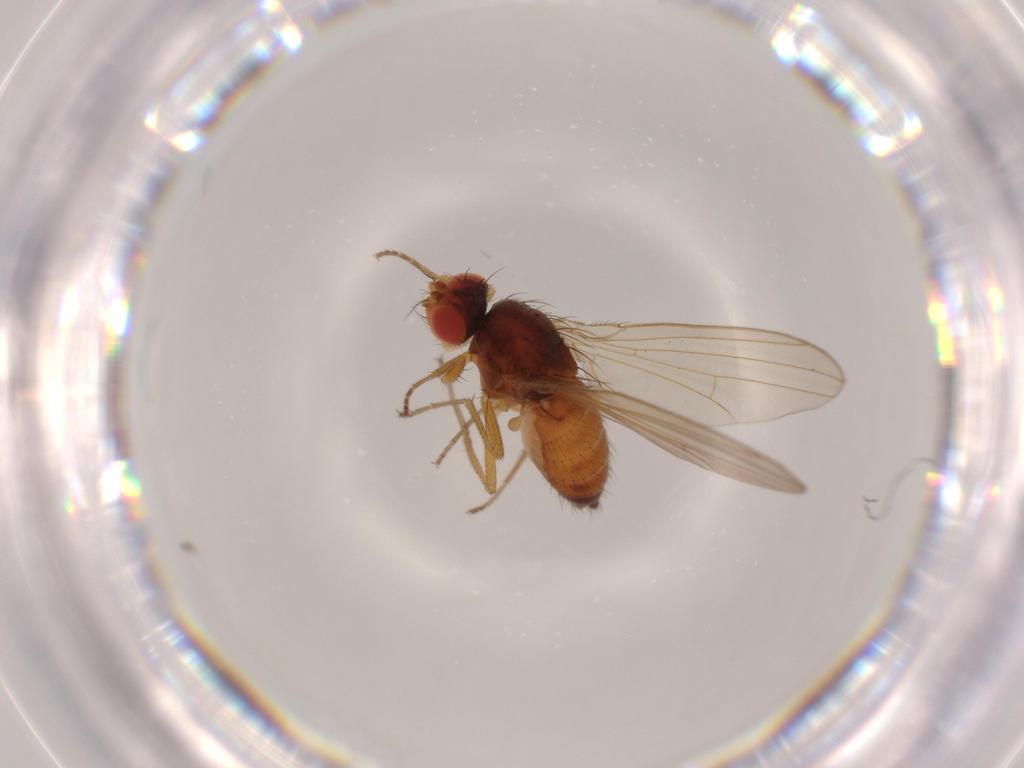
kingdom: Animalia
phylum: Arthropoda
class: Insecta
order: Diptera
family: Drosophilidae
